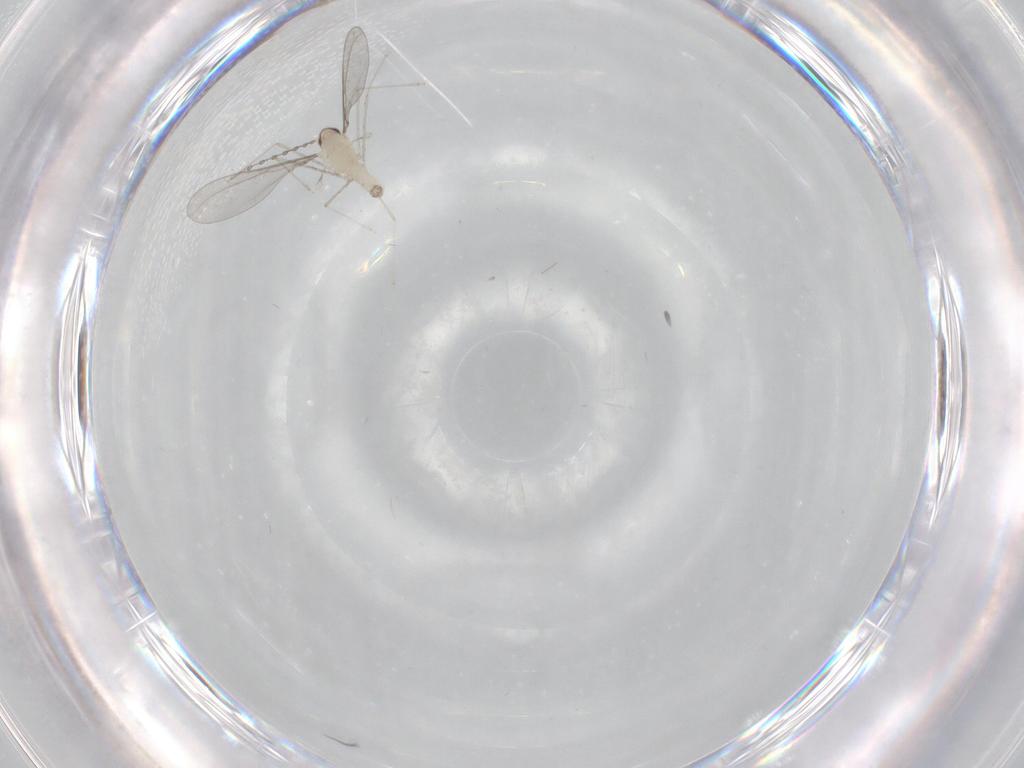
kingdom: Animalia
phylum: Arthropoda
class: Insecta
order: Diptera
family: Cecidomyiidae
